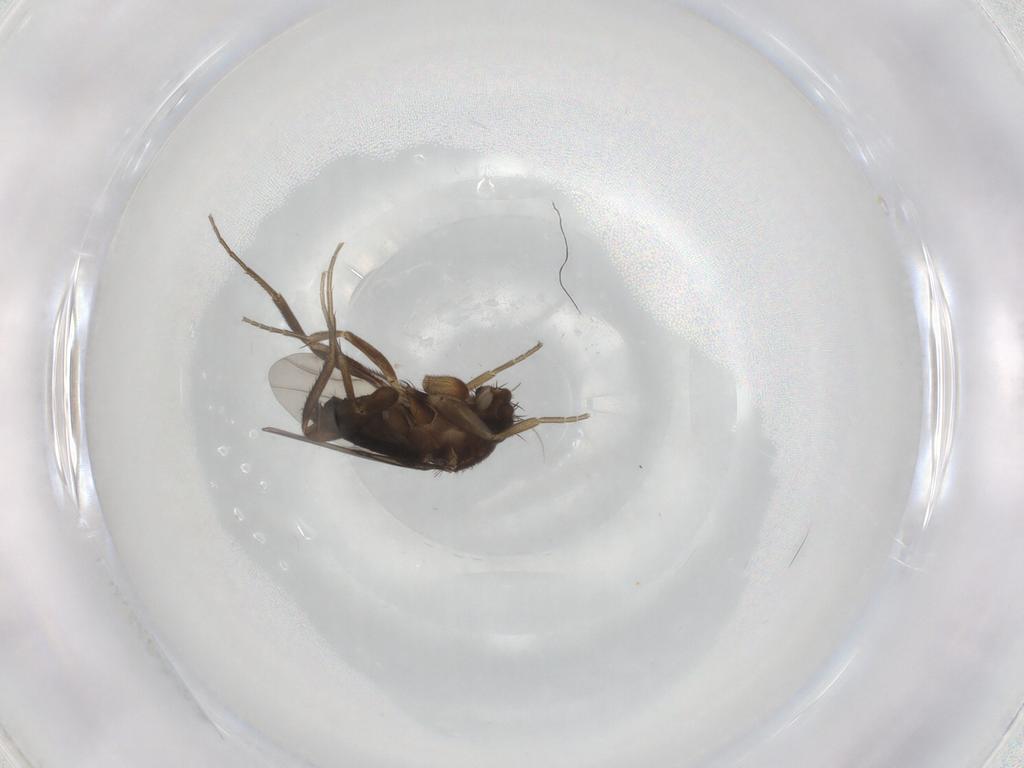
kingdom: Animalia
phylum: Arthropoda
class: Insecta
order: Diptera
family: Phoridae
